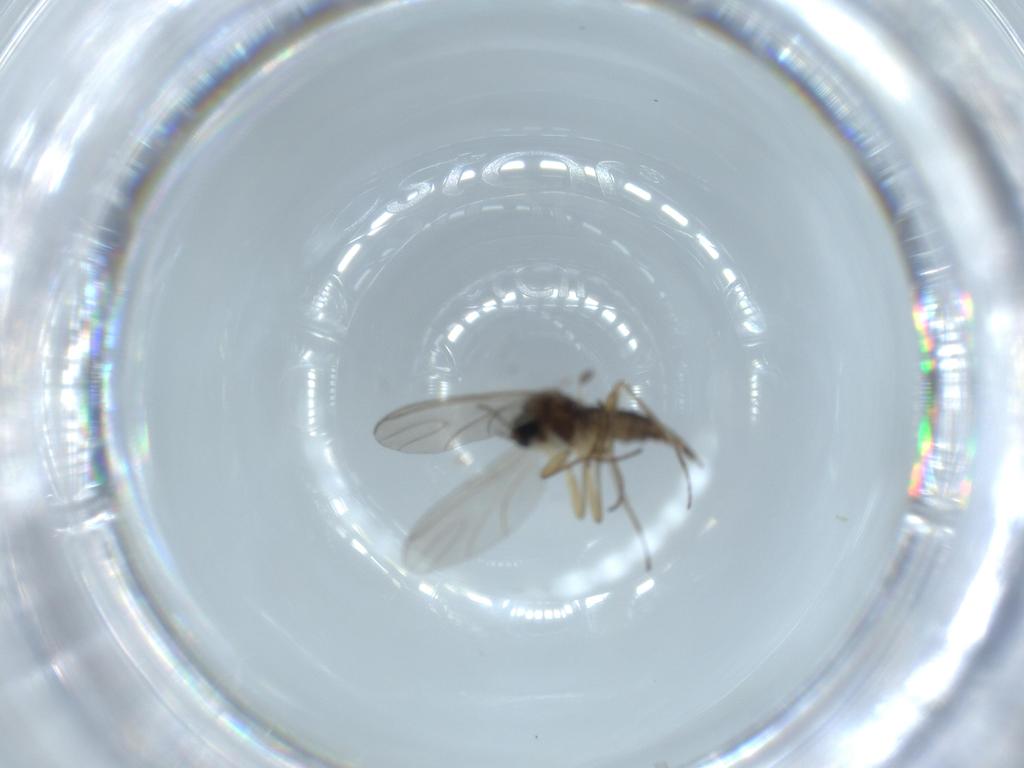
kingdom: Animalia
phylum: Arthropoda
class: Insecta
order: Diptera
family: Sciaridae
